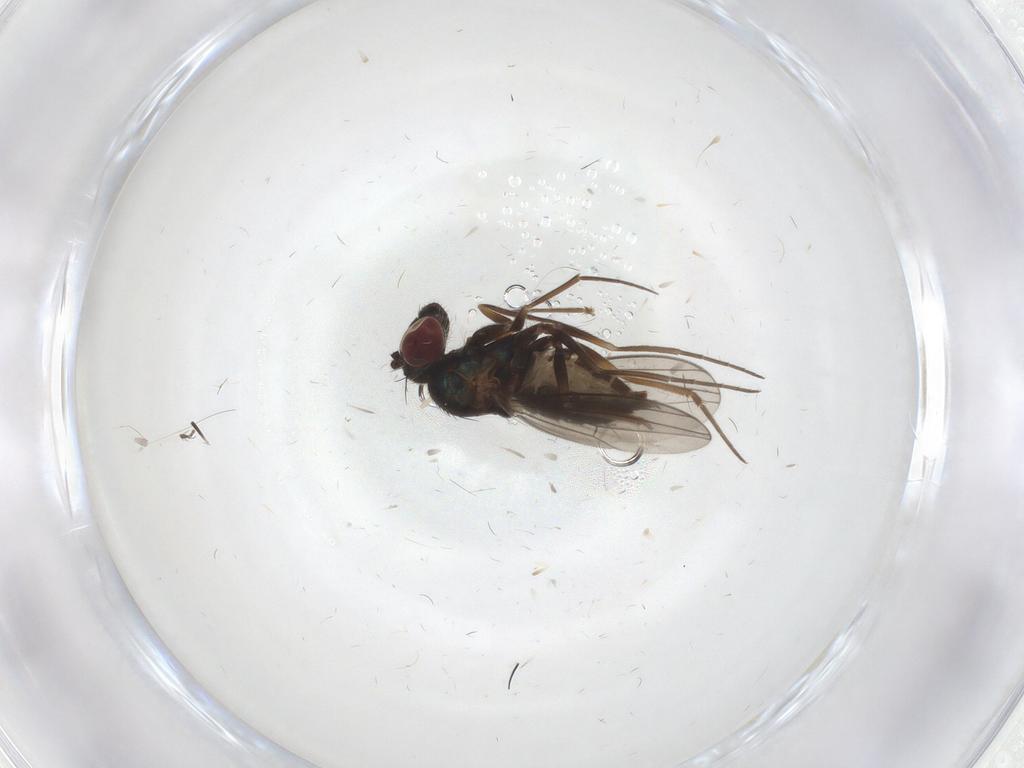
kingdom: Animalia
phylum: Arthropoda
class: Insecta
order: Diptera
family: Dolichopodidae
